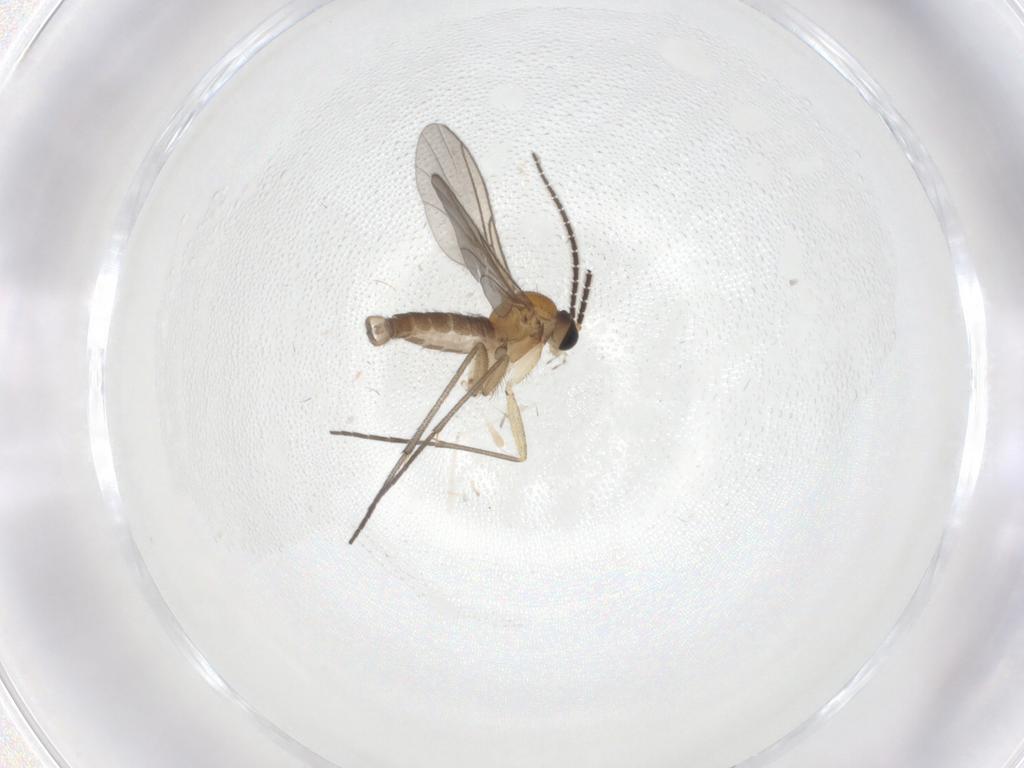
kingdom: Animalia
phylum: Arthropoda
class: Insecta
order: Diptera
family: Sciaridae
